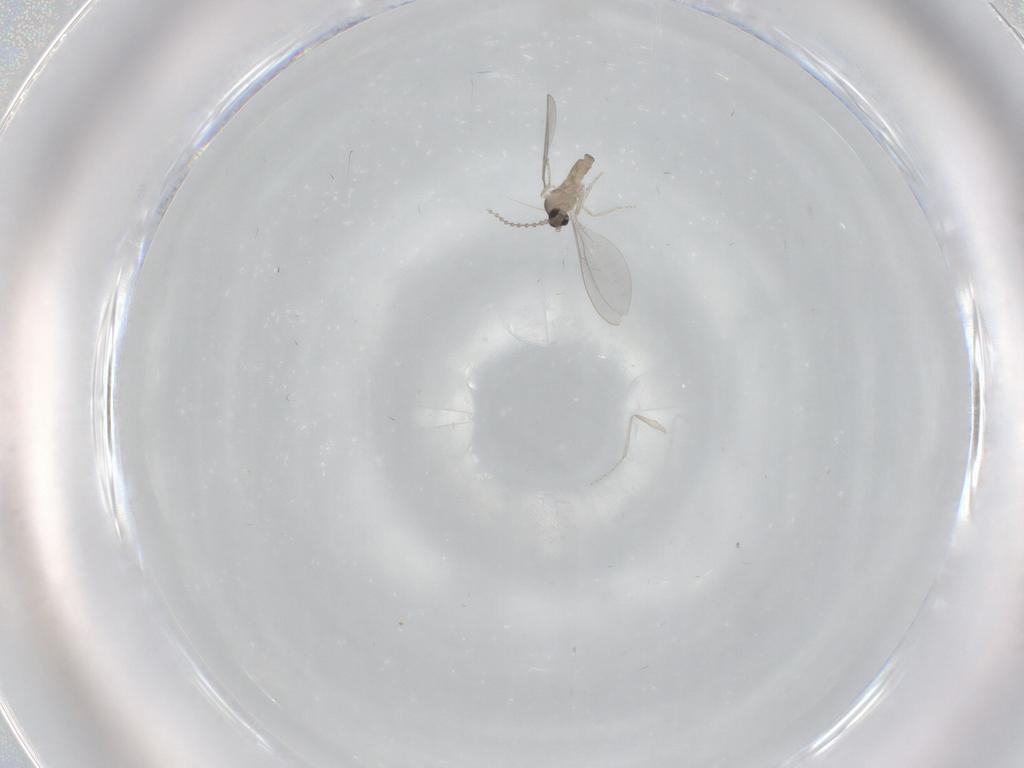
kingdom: Animalia
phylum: Arthropoda
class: Insecta
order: Diptera
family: Cecidomyiidae
